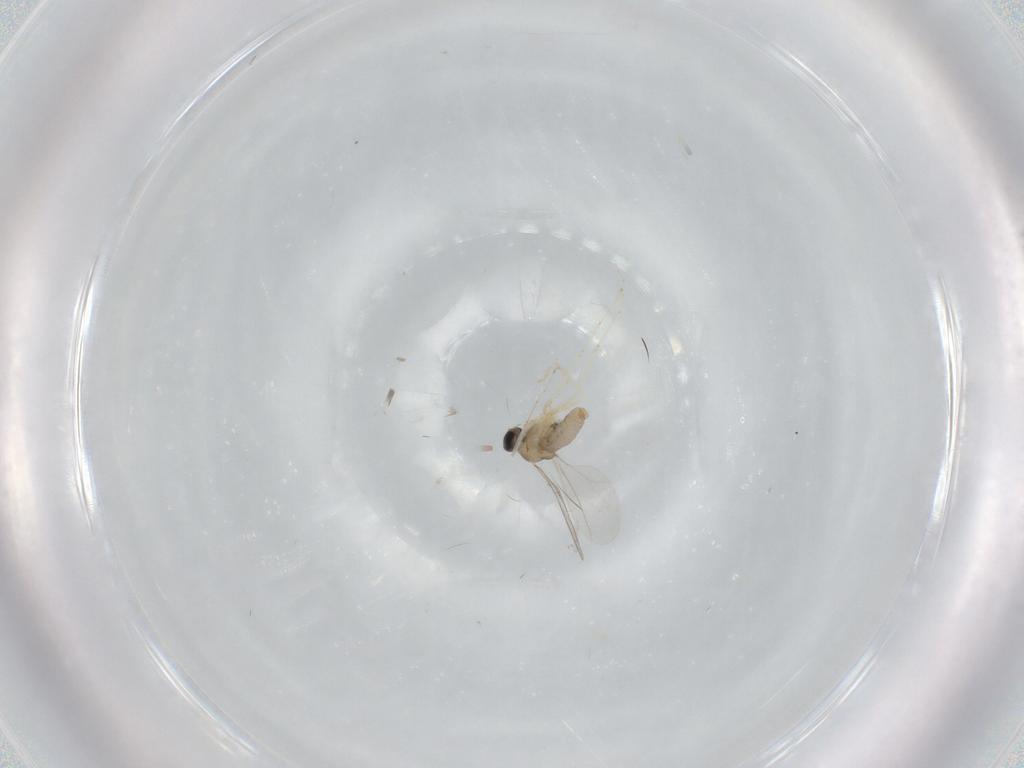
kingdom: Animalia
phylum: Arthropoda
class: Insecta
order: Diptera
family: Cecidomyiidae
